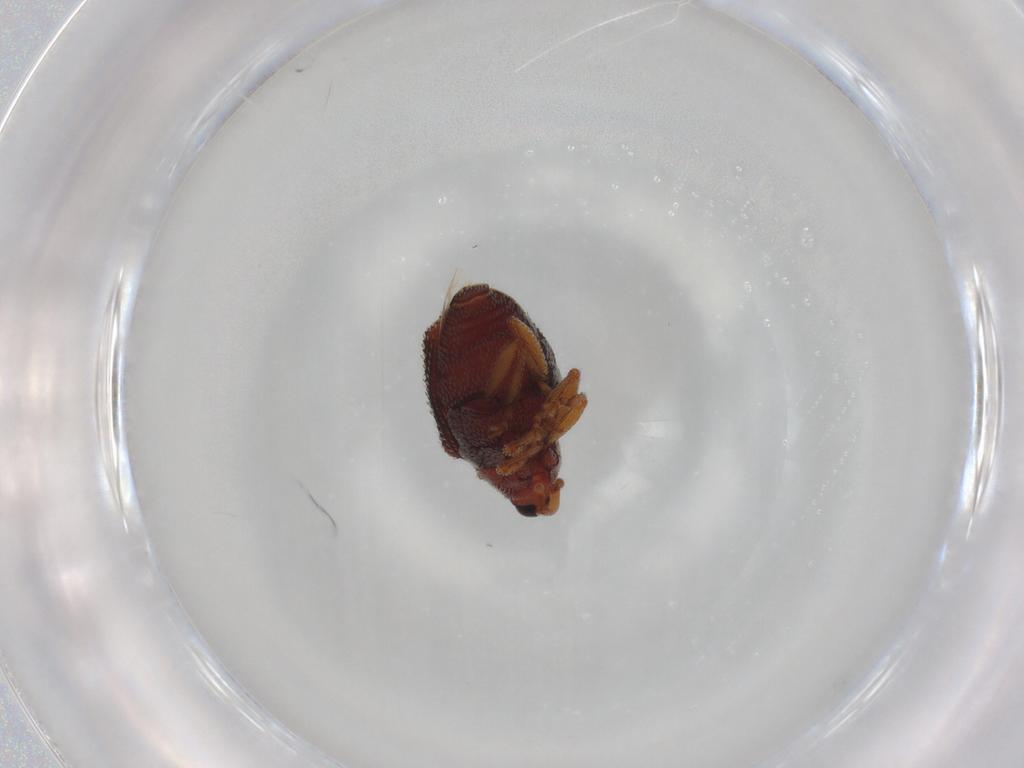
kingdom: Animalia
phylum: Arthropoda
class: Insecta
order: Coleoptera
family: Curculionidae
